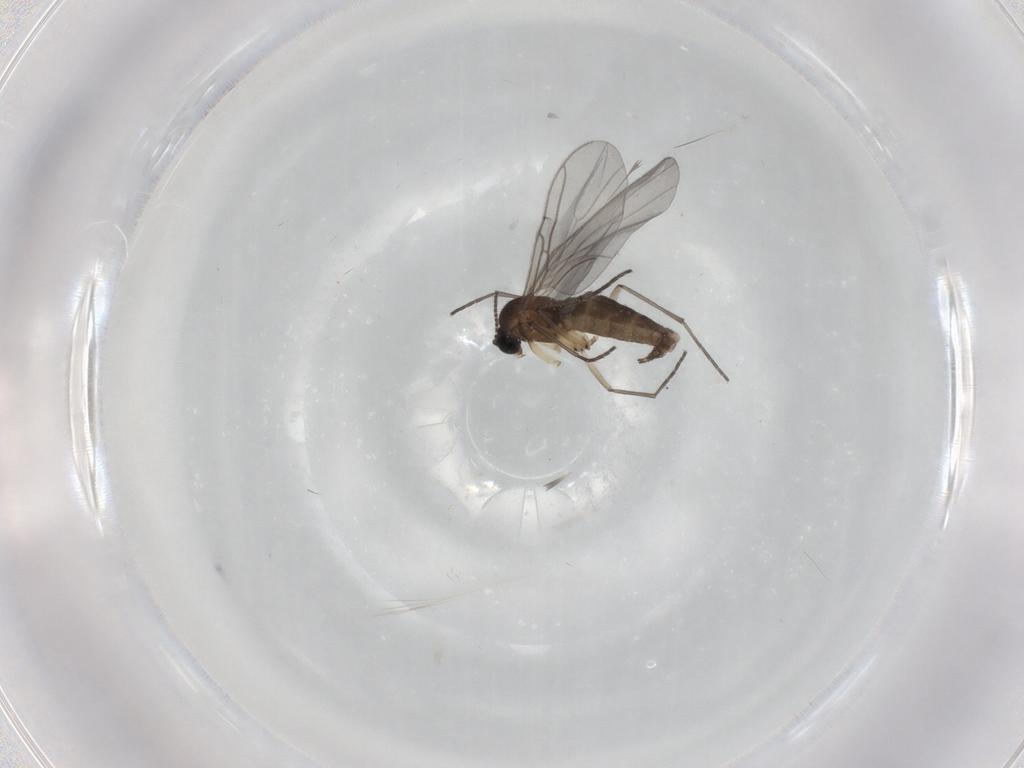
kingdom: Animalia
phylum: Arthropoda
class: Insecta
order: Diptera
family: Sciaridae
